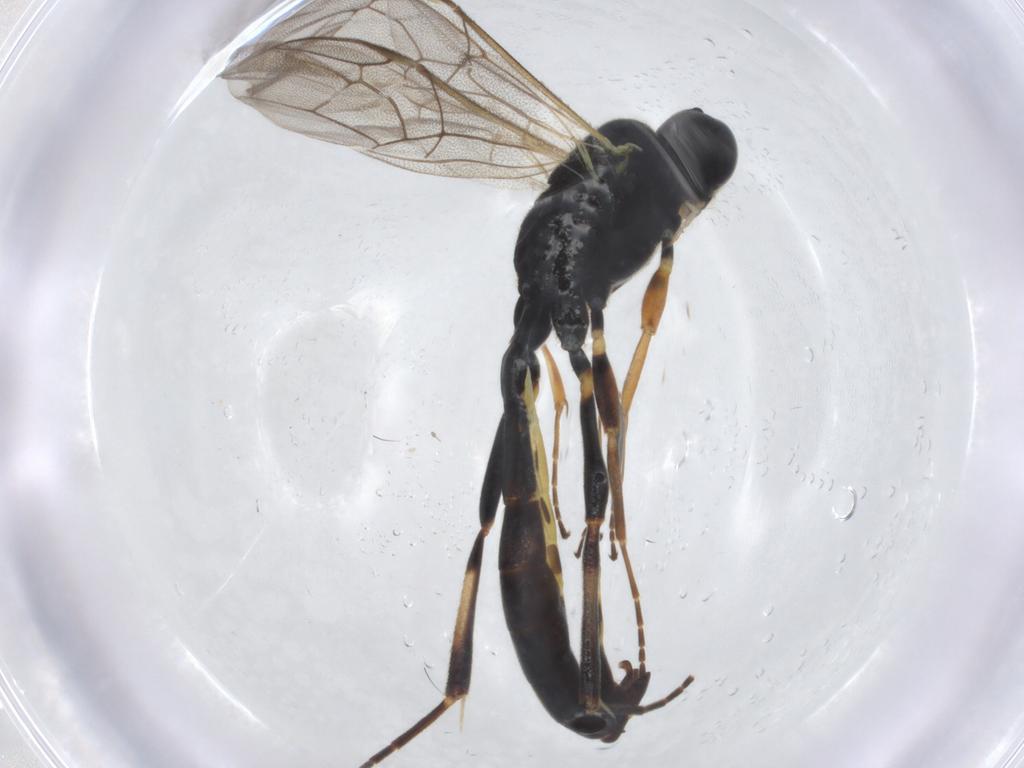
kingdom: Animalia
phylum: Arthropoda
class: Insecta
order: Hymenoptera
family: Ichneumonidae
